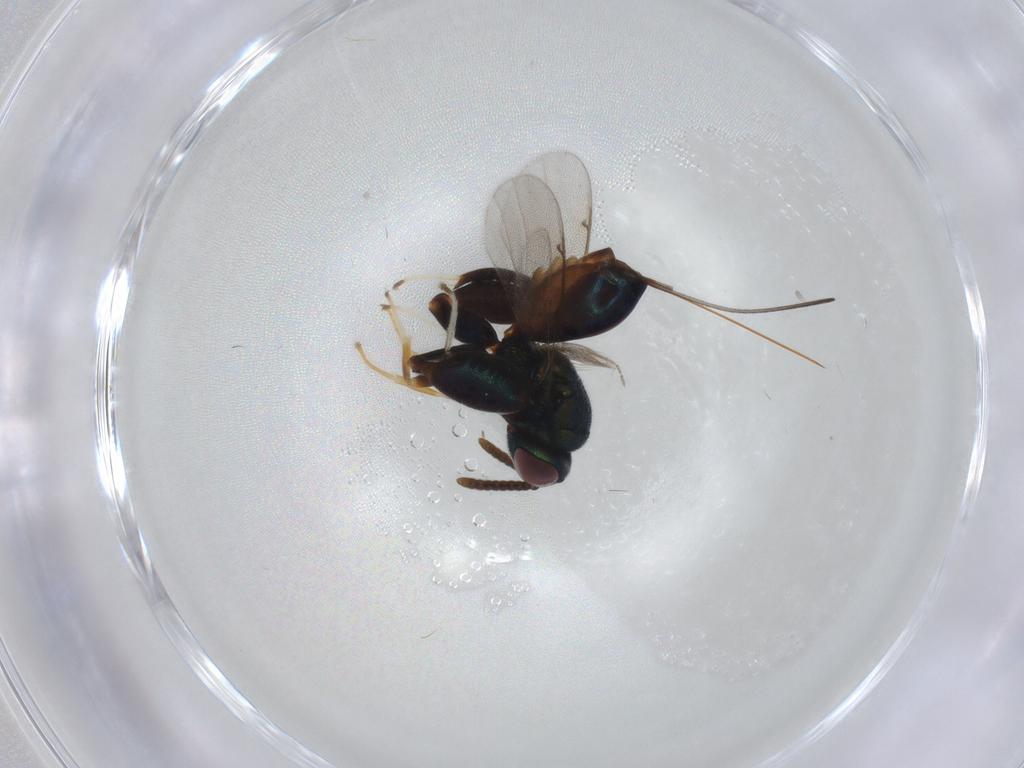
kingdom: Animalia
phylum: Arthropoda
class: Insecta
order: Hymenoptera
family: Torymidae
